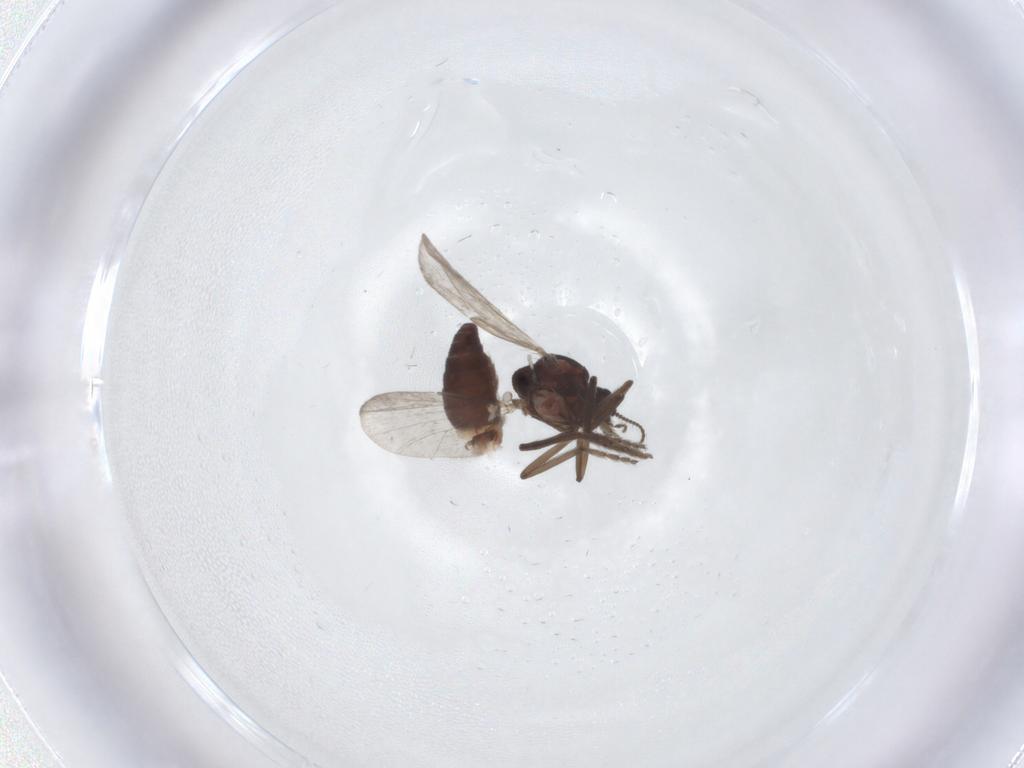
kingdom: Animalia
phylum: Arthropoda
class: Insecta
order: Diptera
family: Ceratopogonidae
